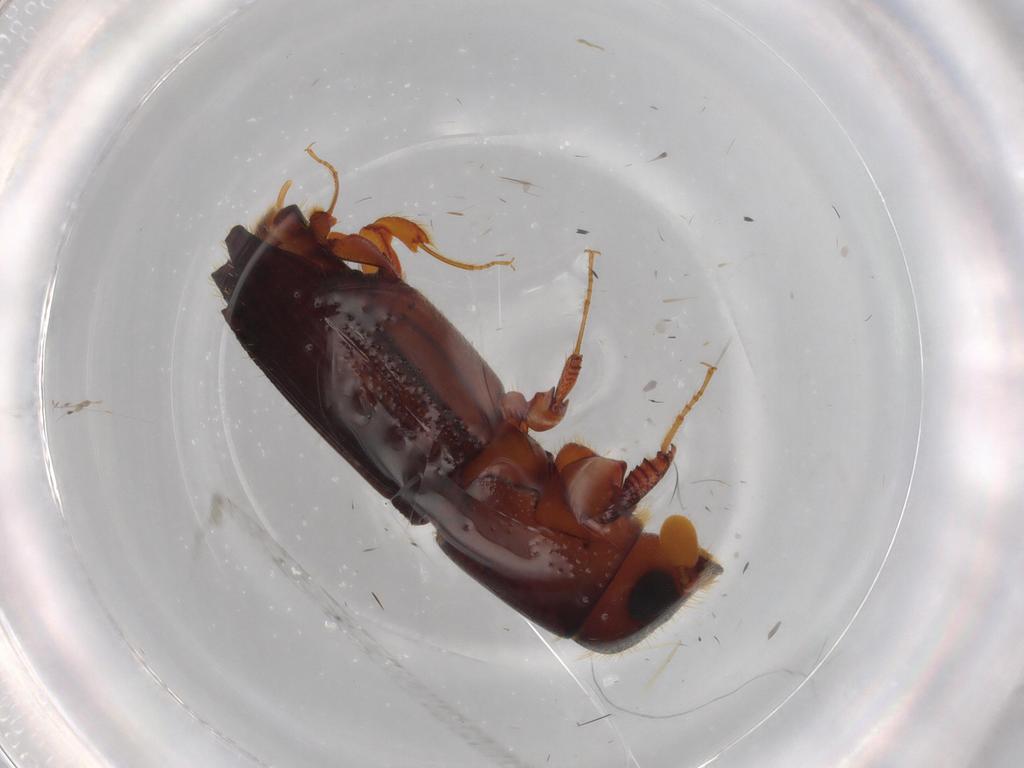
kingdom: Animalia
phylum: Arthropoda
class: Insecta
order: Coleoptera
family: Curculionidae
